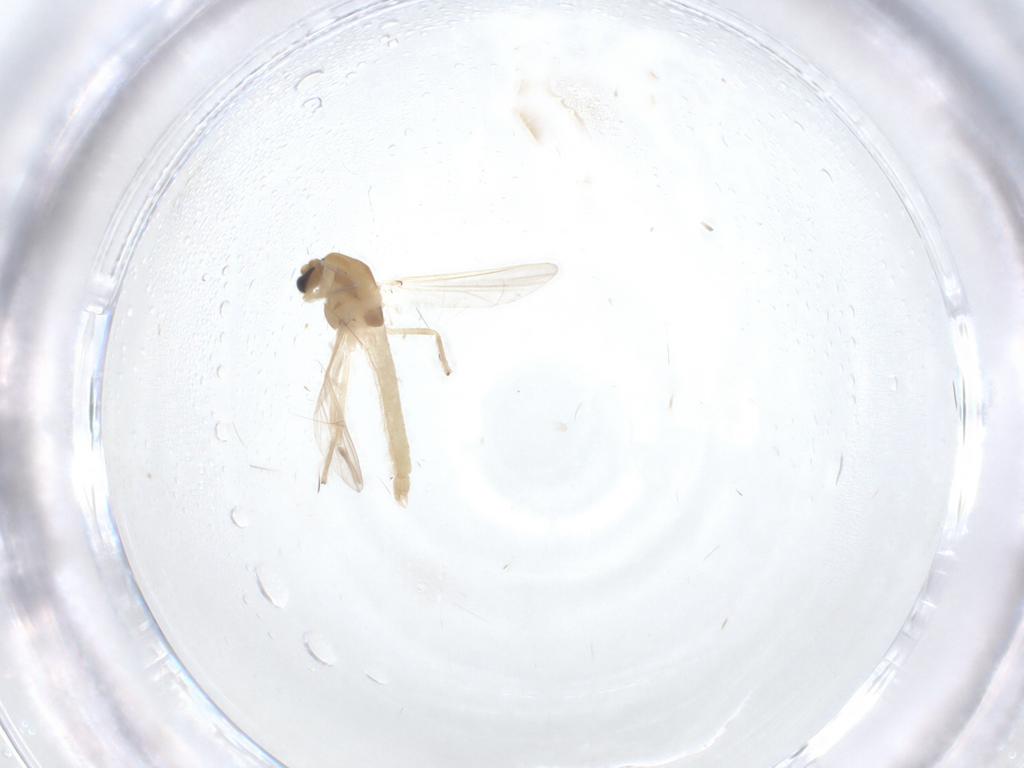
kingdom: Animalia
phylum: Arthropoda
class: Insecta
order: Diptera
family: Chironomidae
